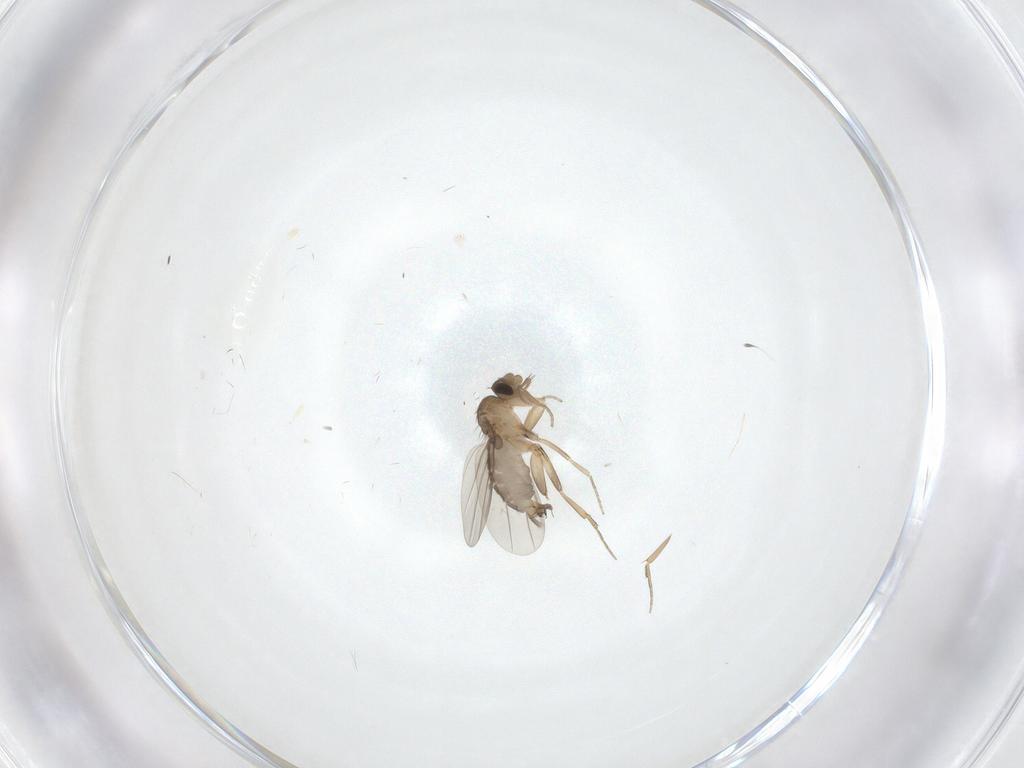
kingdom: Animalia
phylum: Arthropoda
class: Insecta
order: Diptera
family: Phoridae
